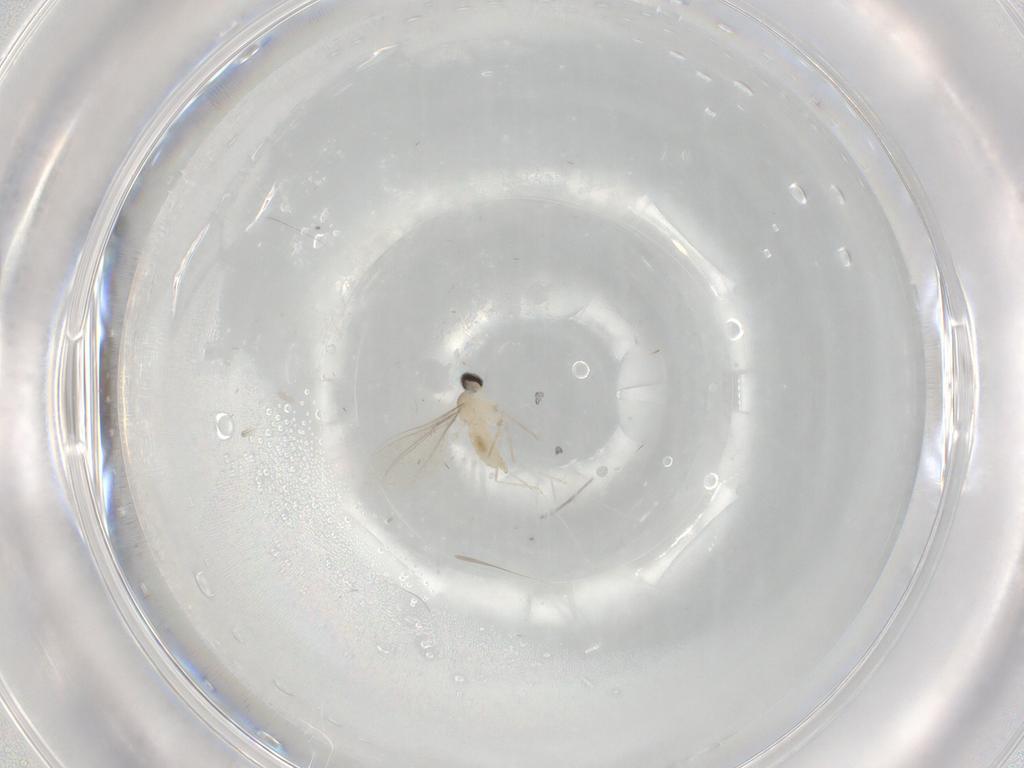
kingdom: Animalia
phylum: Arthropoda
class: Insecta
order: Diptera
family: Cecidomyiidae
